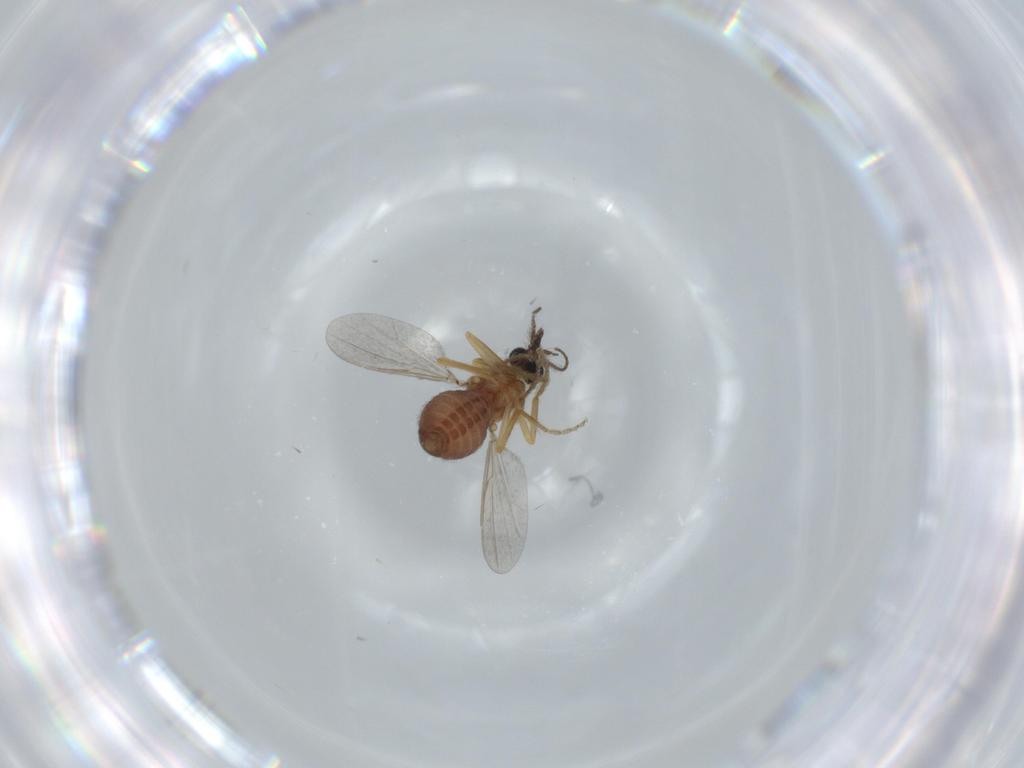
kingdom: Animalia
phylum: Arthropoda
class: Insecta
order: Diptera
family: Ceratopogonidae
